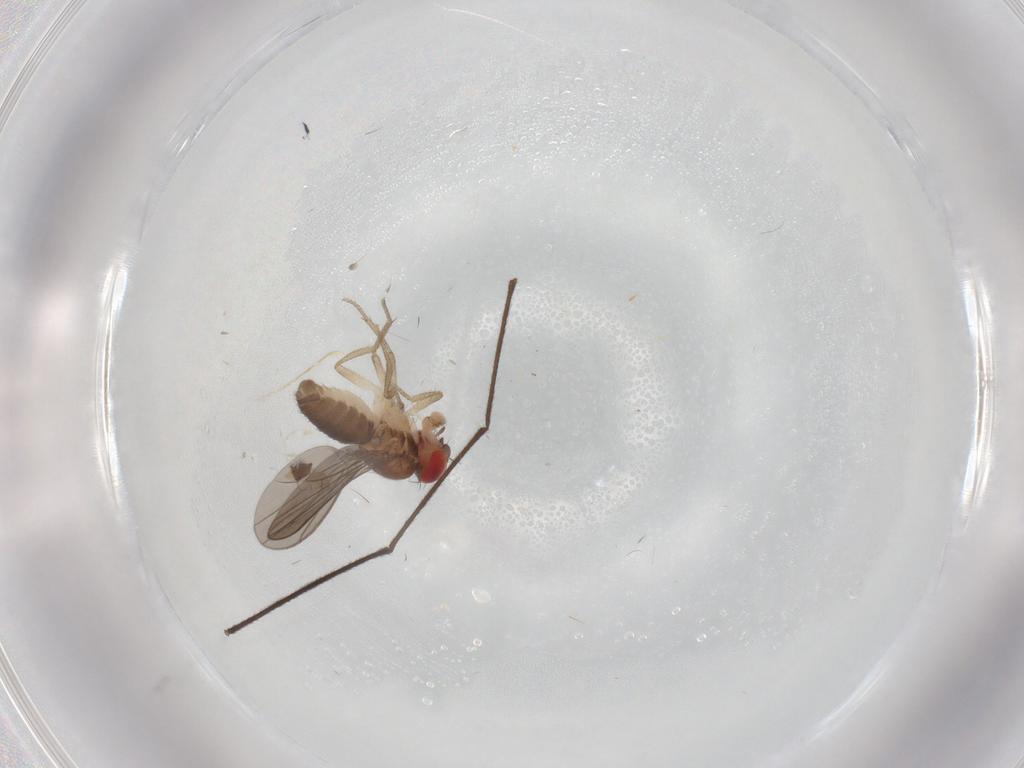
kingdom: Animalia
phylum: Arthropoda
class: Insecta
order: Diptera
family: Drosophilidae
